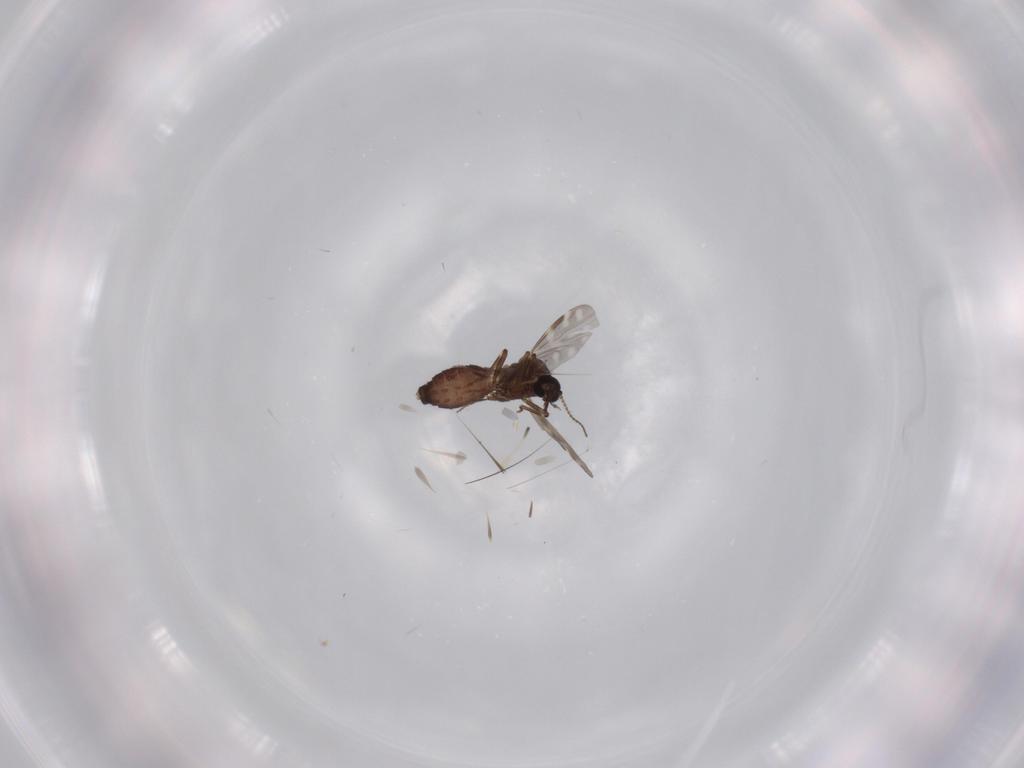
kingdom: Animalia
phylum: Arthropoda
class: Insecta
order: Diptera
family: Ceratopogonidae
